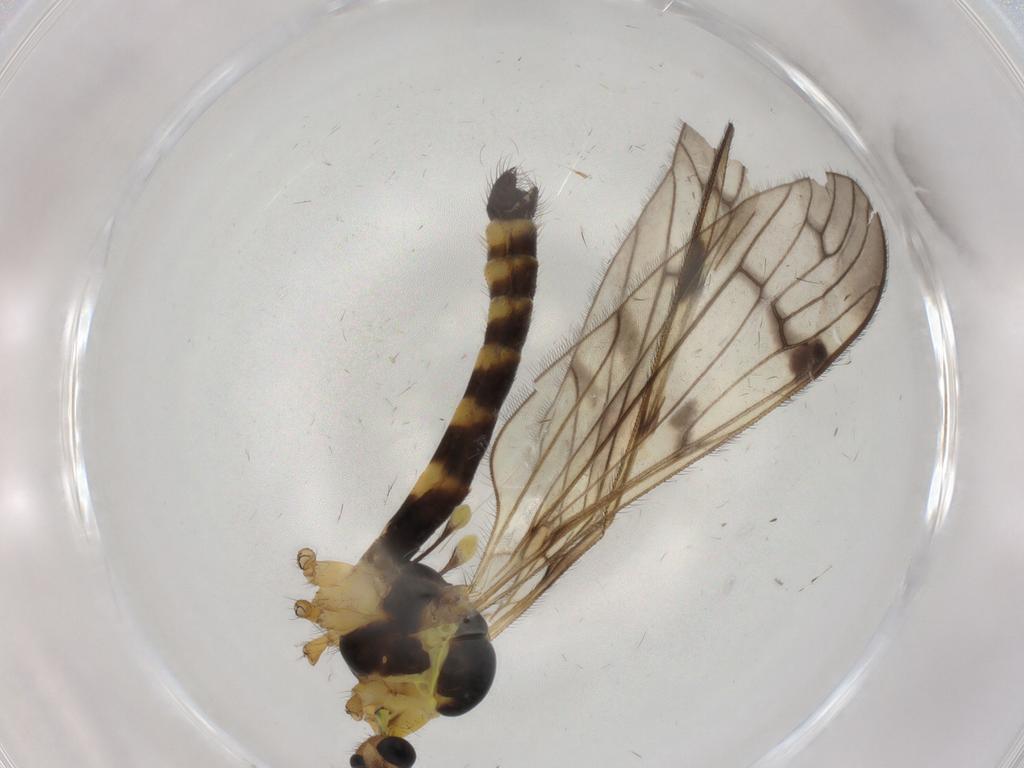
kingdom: Animalia
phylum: Arthropoda
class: Insecta
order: Diptera
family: Limoniidae
